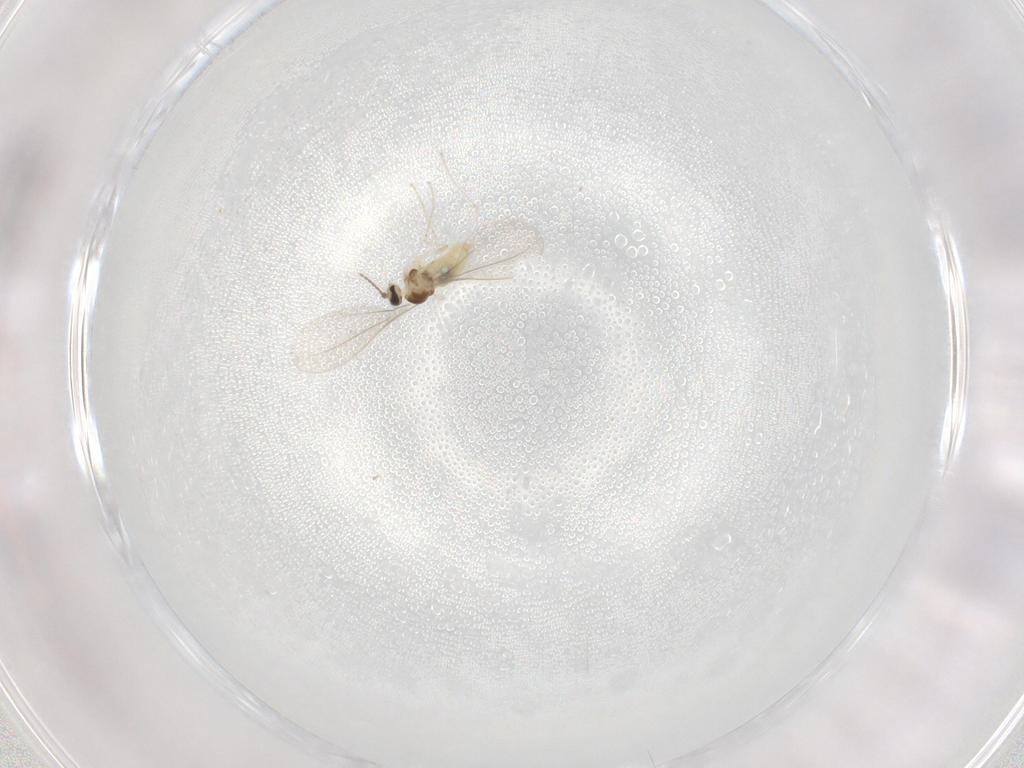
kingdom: Animalia
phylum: Arthropoda
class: Insecta
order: Diptera
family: Cecidomyiidae
